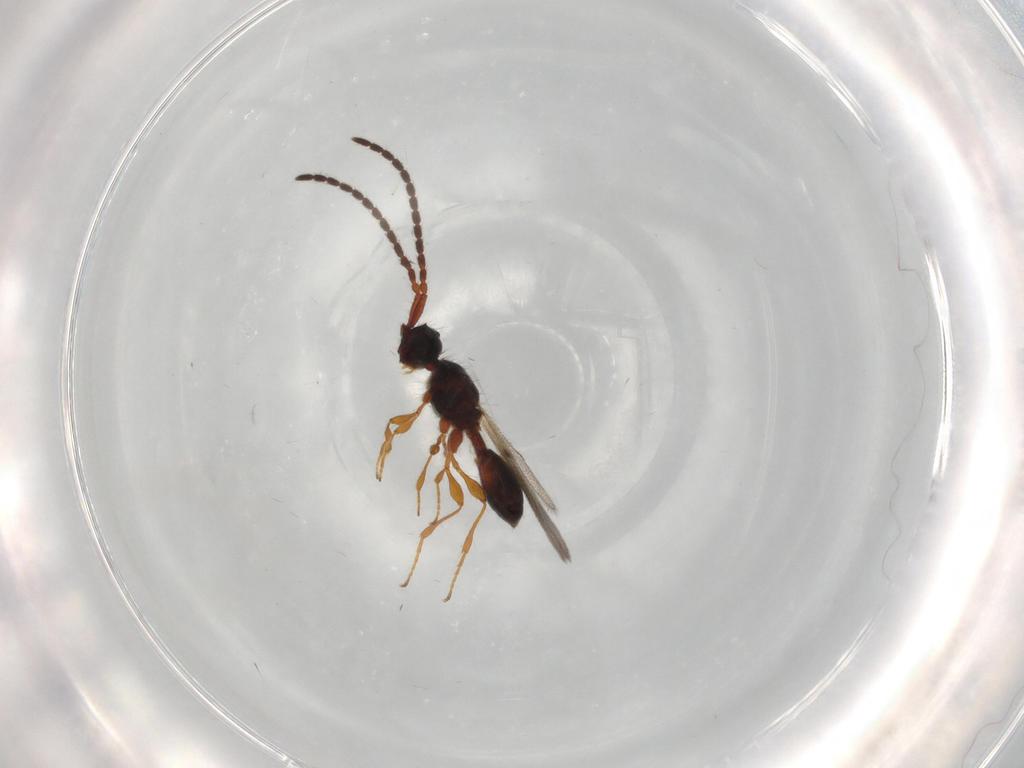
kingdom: Animalia
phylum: Arthropoda
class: Insecta
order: Hymenoptera
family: Diapriidae
